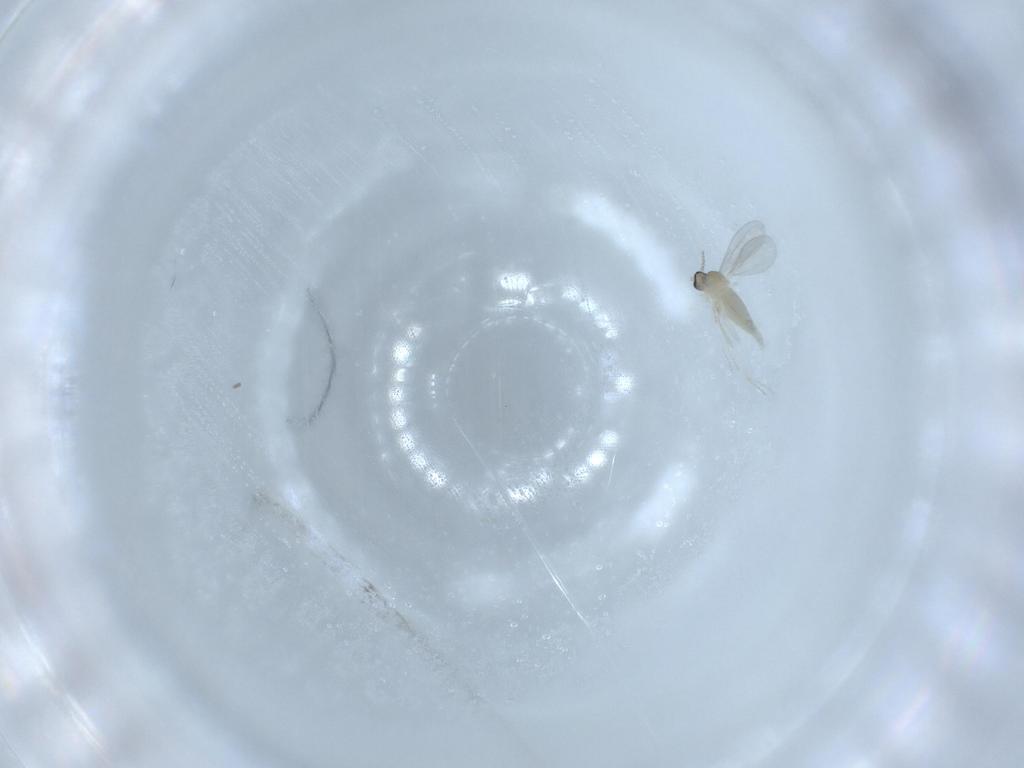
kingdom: Animalia
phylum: Arthropoda
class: Insecta
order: Diptera
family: Cecidomyiidae
